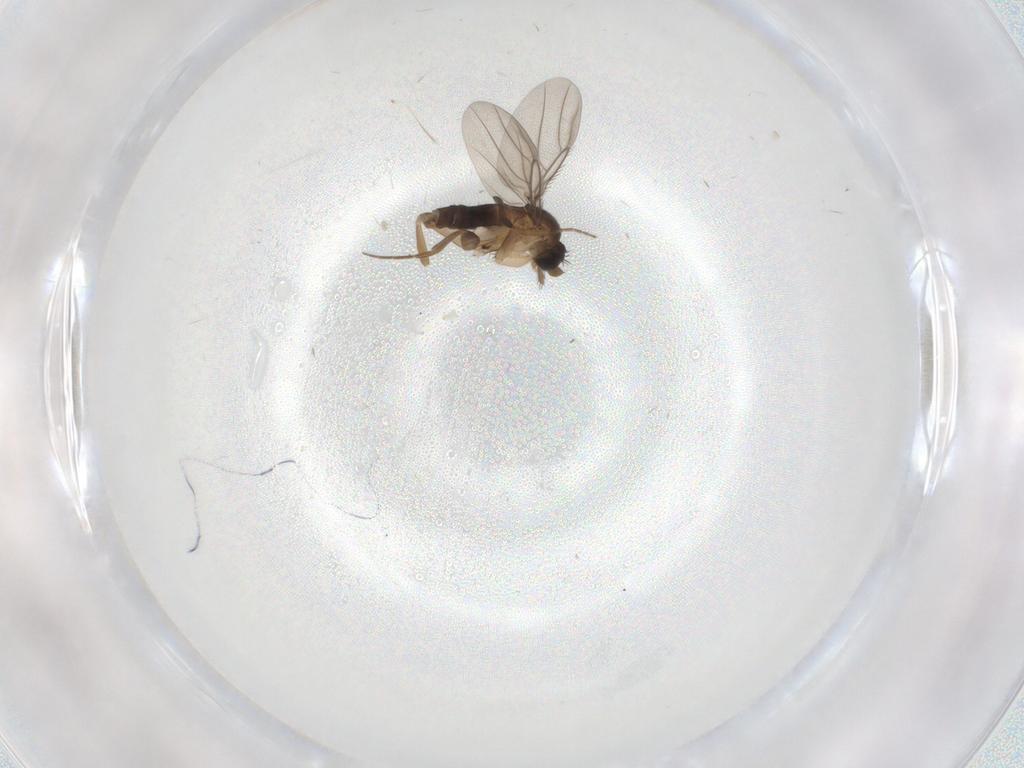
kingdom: Animalia
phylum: Arthropoda
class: Insecta
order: Diptera
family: Phoridae
